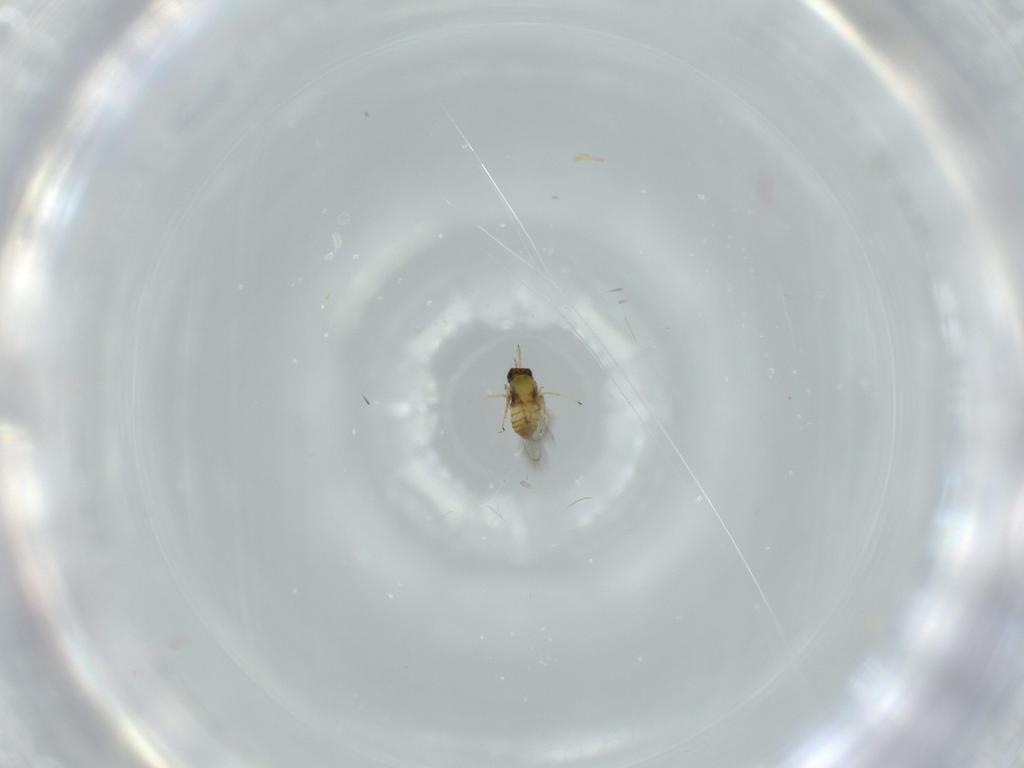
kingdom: Animalia
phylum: Arthropoda
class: Insecta
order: Hymenoptera
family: Trichogrammatidae
